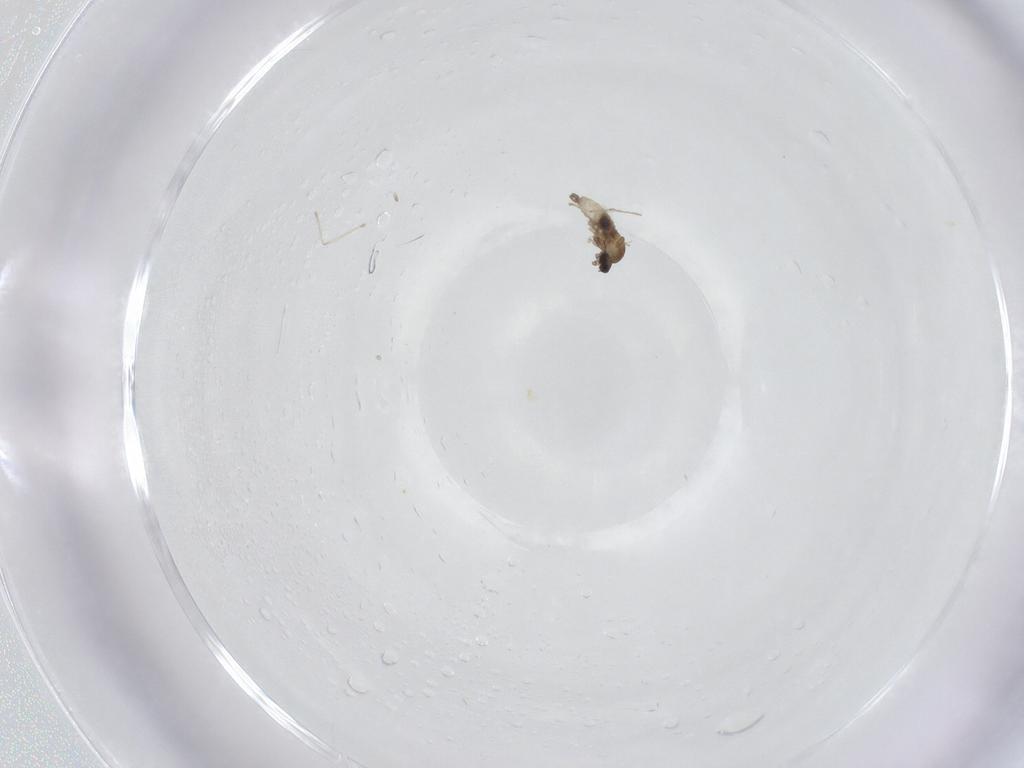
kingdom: Animalia
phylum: Arthropoda
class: Insecta
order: Diptera
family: Cecidomyiidae
